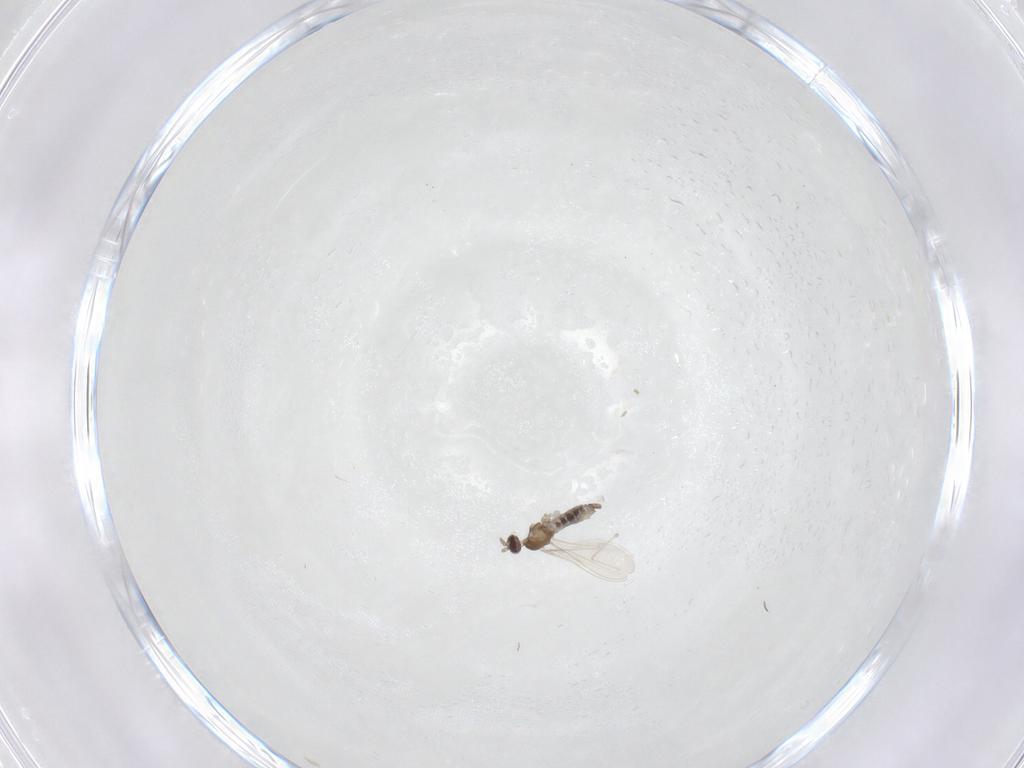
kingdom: Animalia
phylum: Arthropoda
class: Insecta
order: Diptera
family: Cecidomyiidae
